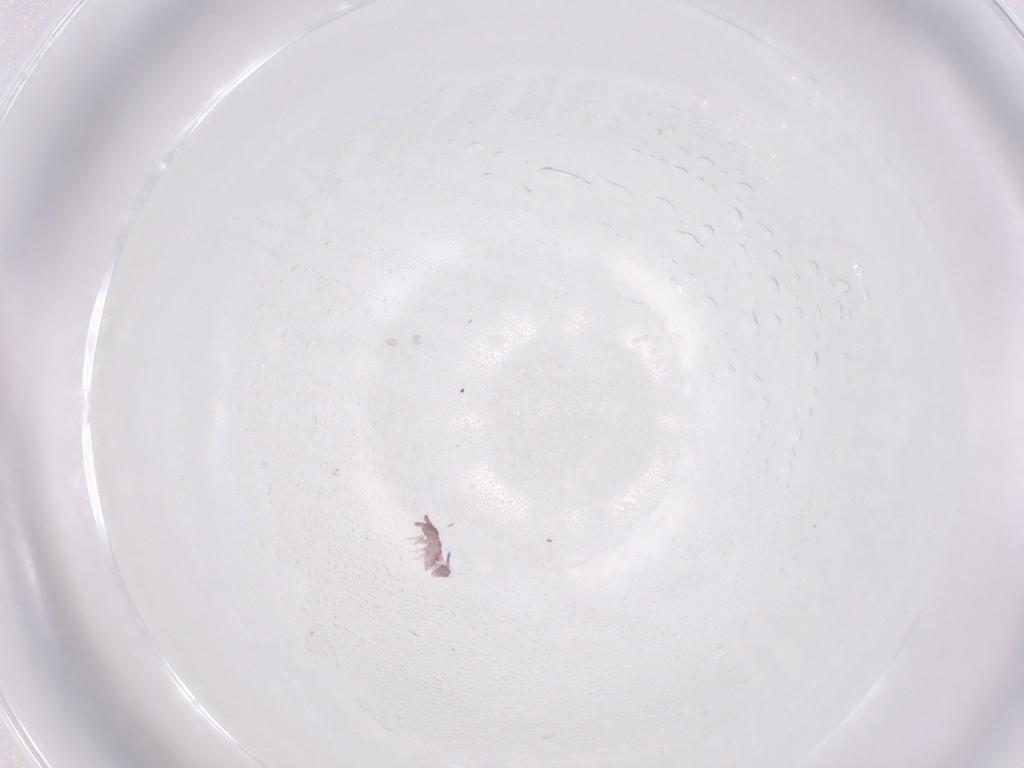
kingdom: Animalia
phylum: Arthropoda
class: Collembola
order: Poduromorpha
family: Hypogastruridae
